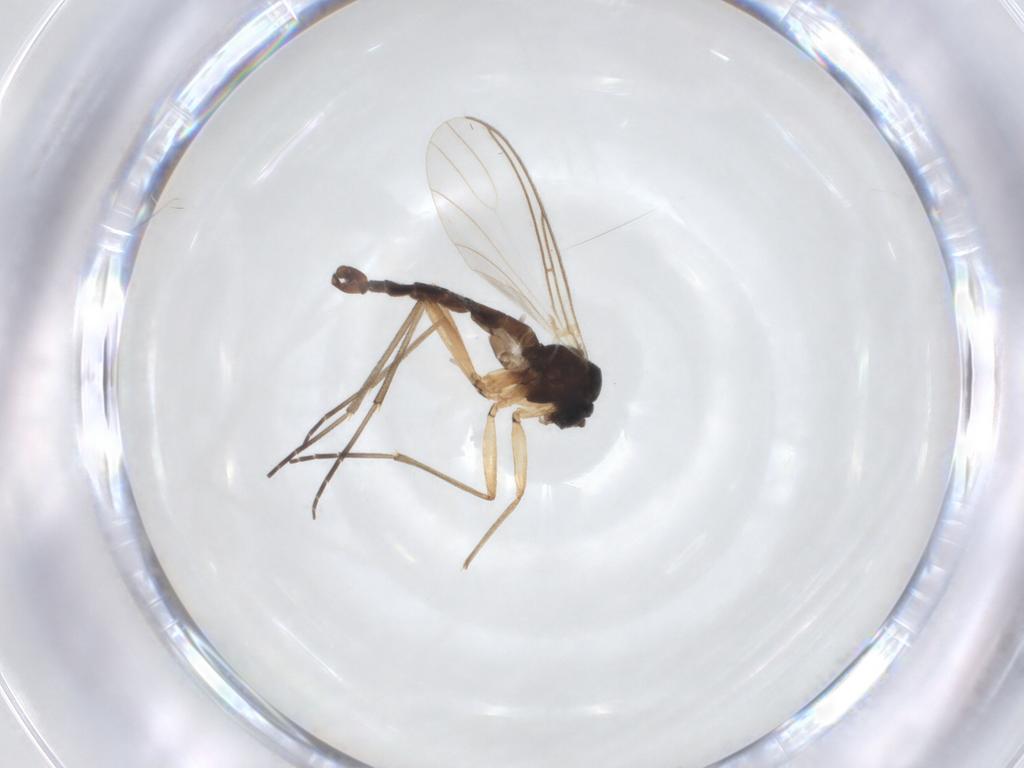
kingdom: Animalia
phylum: Arthropoda
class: Insecta
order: Diptera
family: Sciaridae
